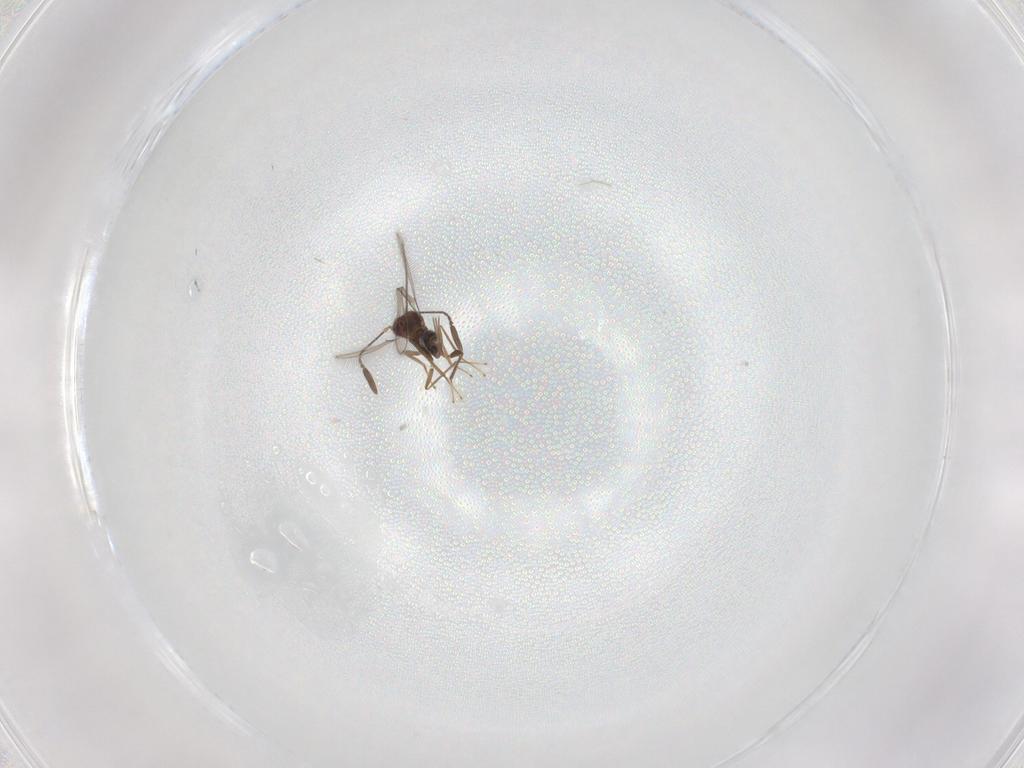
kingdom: Animalia
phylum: Arthropoda
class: Insecta
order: Hymenoptera
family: Mymaridae
